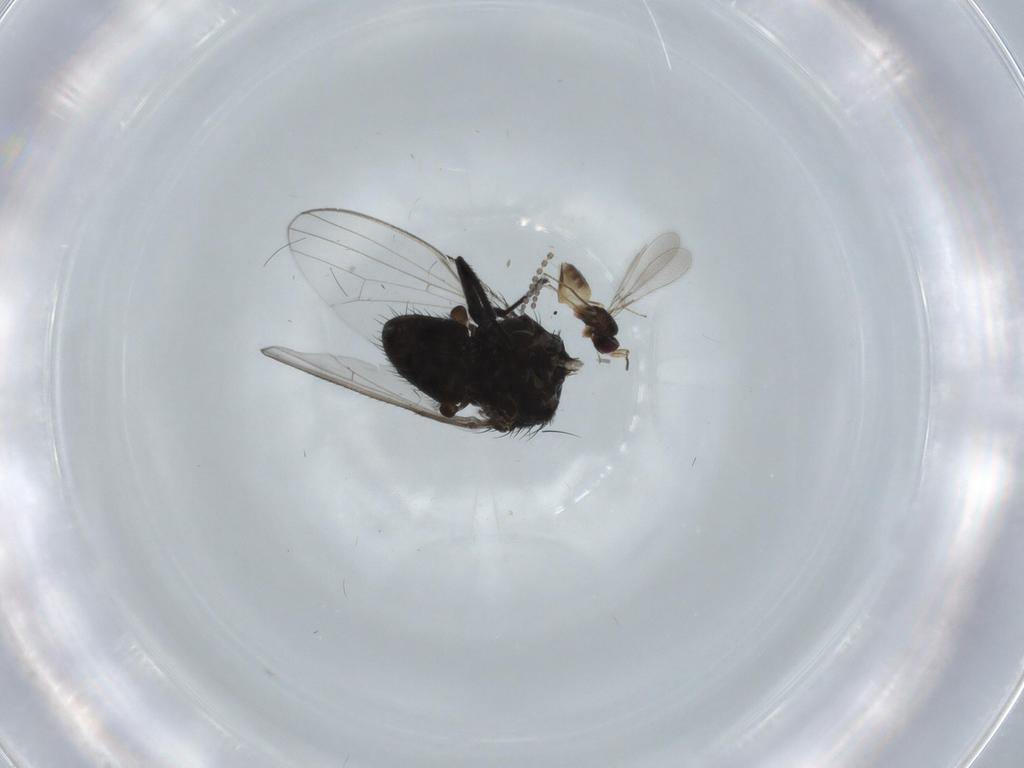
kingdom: Animalia
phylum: Arthropoda
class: Insecta
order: Diptera
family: Milichiidae
